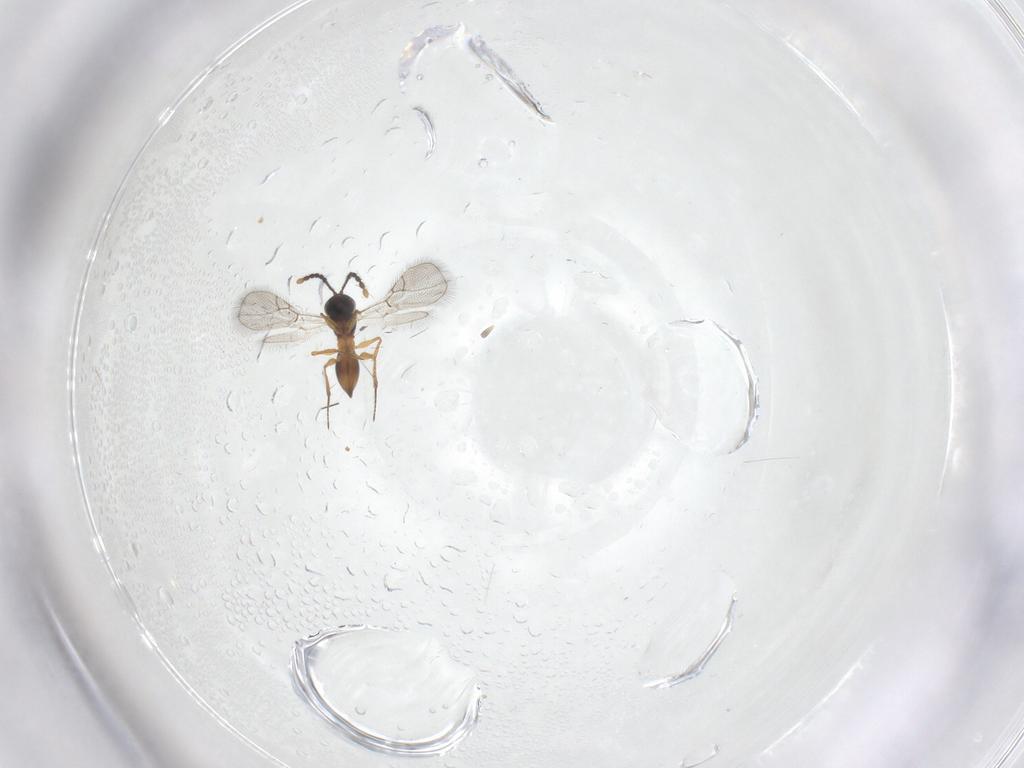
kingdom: Animalia
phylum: Arthropoda
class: Insecta
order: Hymenoptera
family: Figitidae
